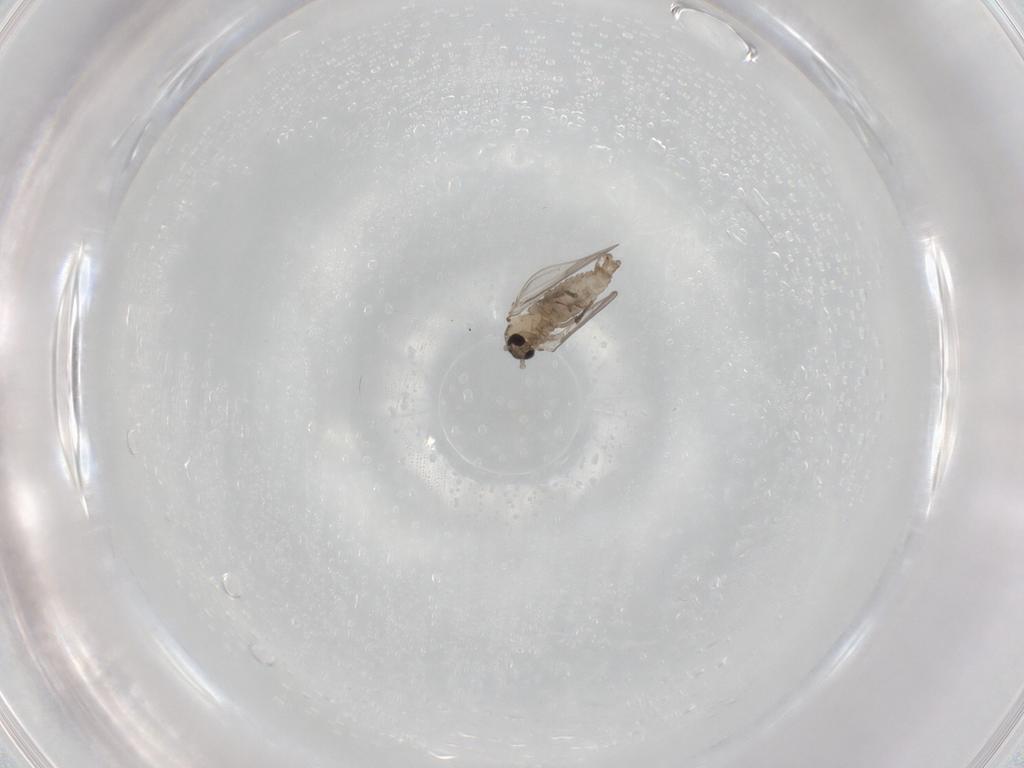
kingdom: Animalia
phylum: Arthropoda
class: Insecta
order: Diptera
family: Psychodidae
